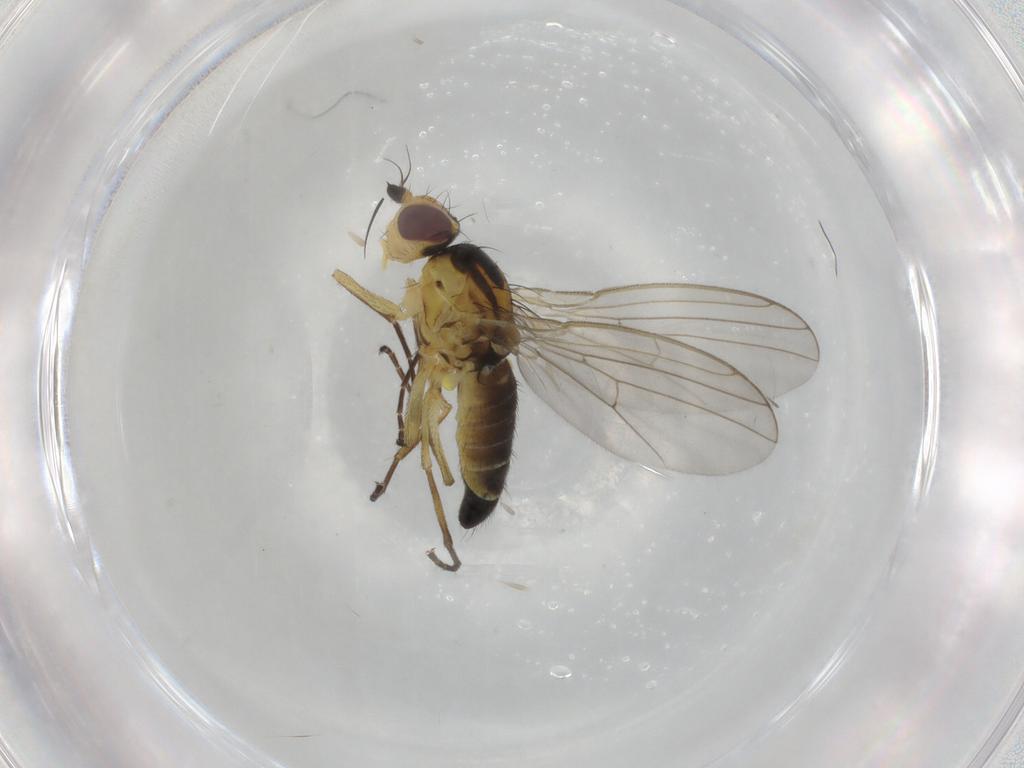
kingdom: Animalia
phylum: Arthropoda
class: Insecta
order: Diptera
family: Agromyzidae
